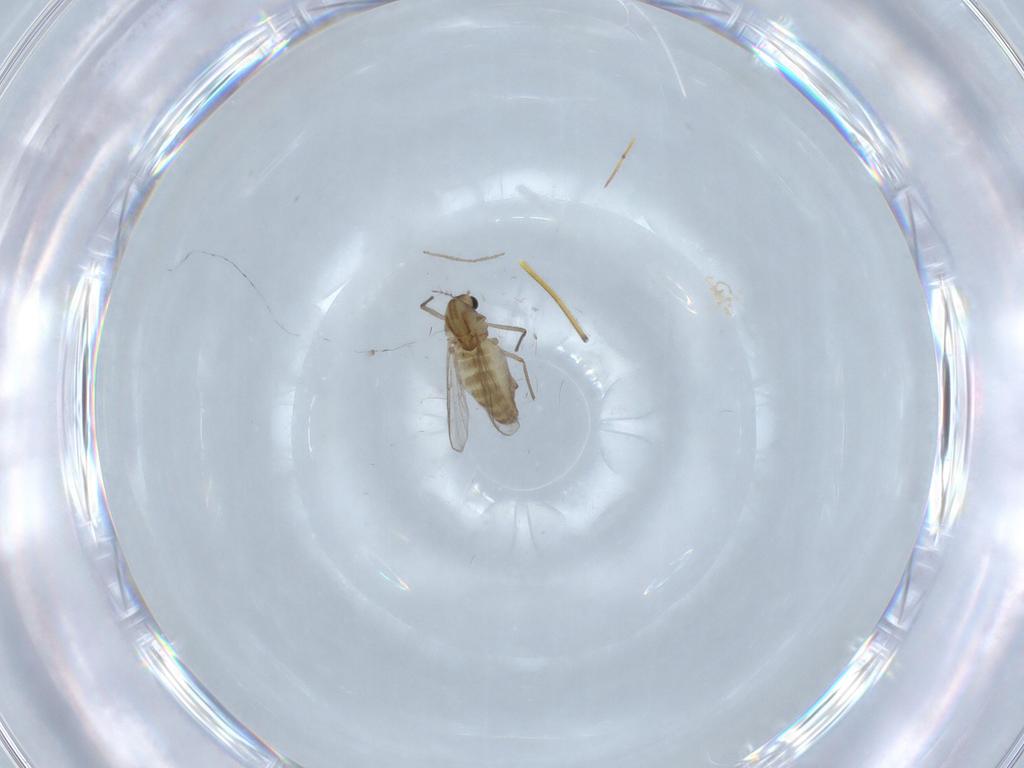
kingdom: Animalia
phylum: Arthropoda
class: Insecta
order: Diptera
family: Chironomidae
